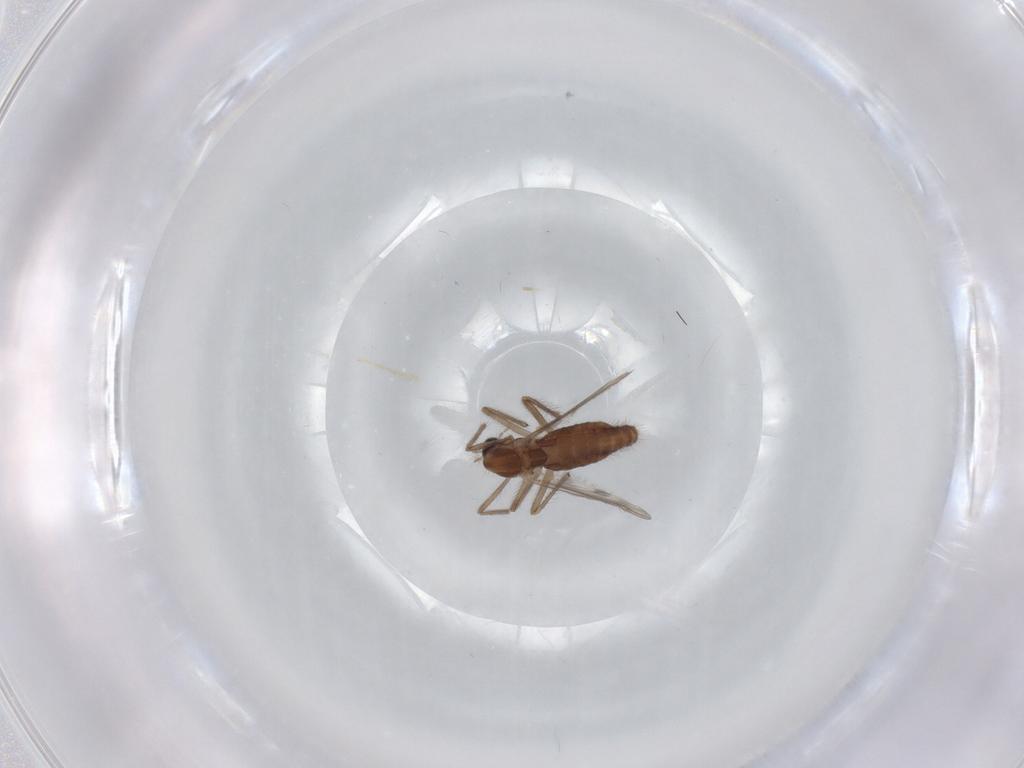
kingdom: Animalia
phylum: Arthropoda
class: Insecta
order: Diptera
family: Chironomidae
